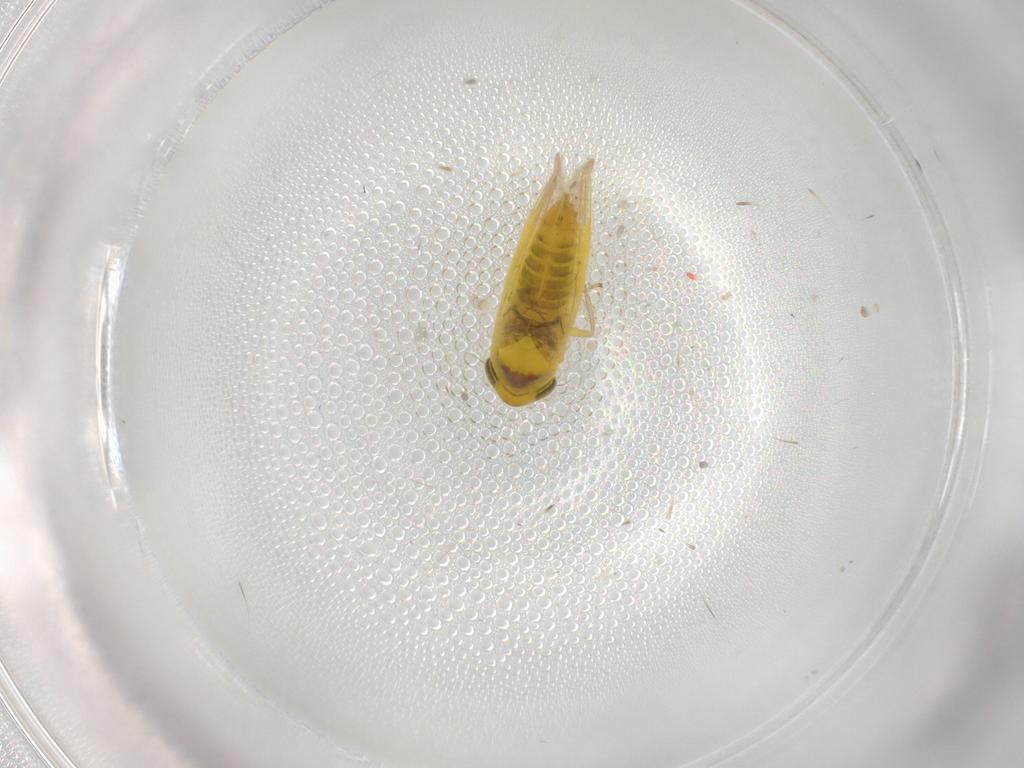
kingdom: Animalia
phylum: Arthropoda
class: Insecta
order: Hemiptera
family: Cicadellidae
